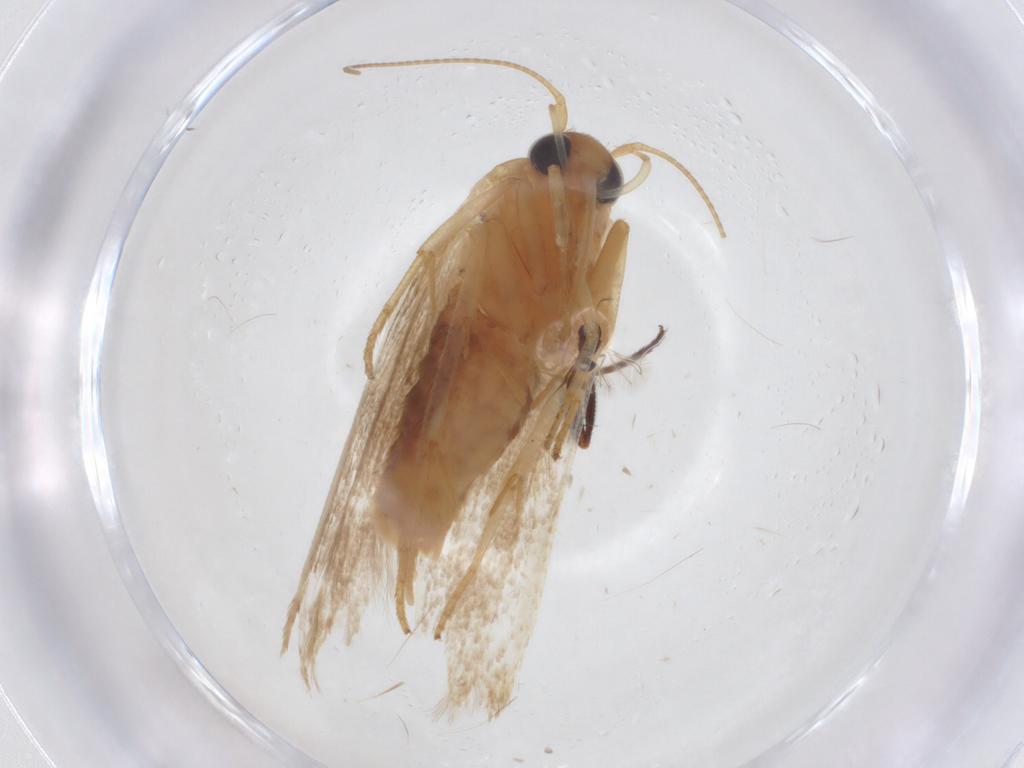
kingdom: Animalia
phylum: Arthropoda
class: Insecta
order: Lepidoptera
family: Blastobasidae
